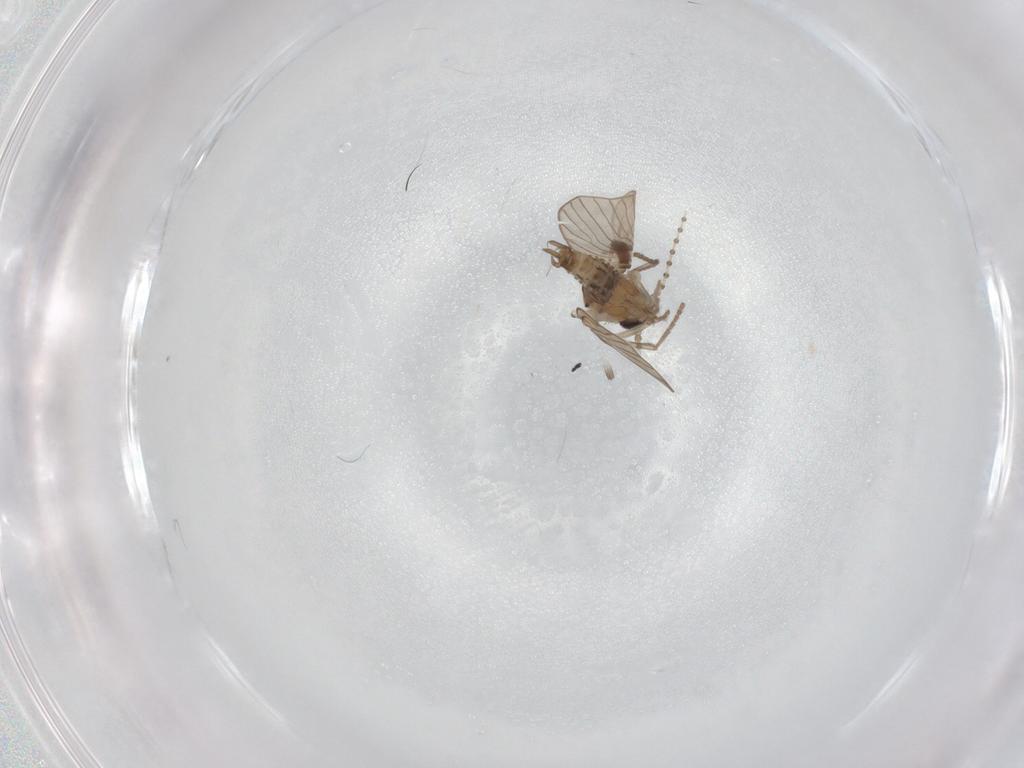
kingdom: Animalia
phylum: Arthropoda
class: Insecta
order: Diptera
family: Psychodidae
